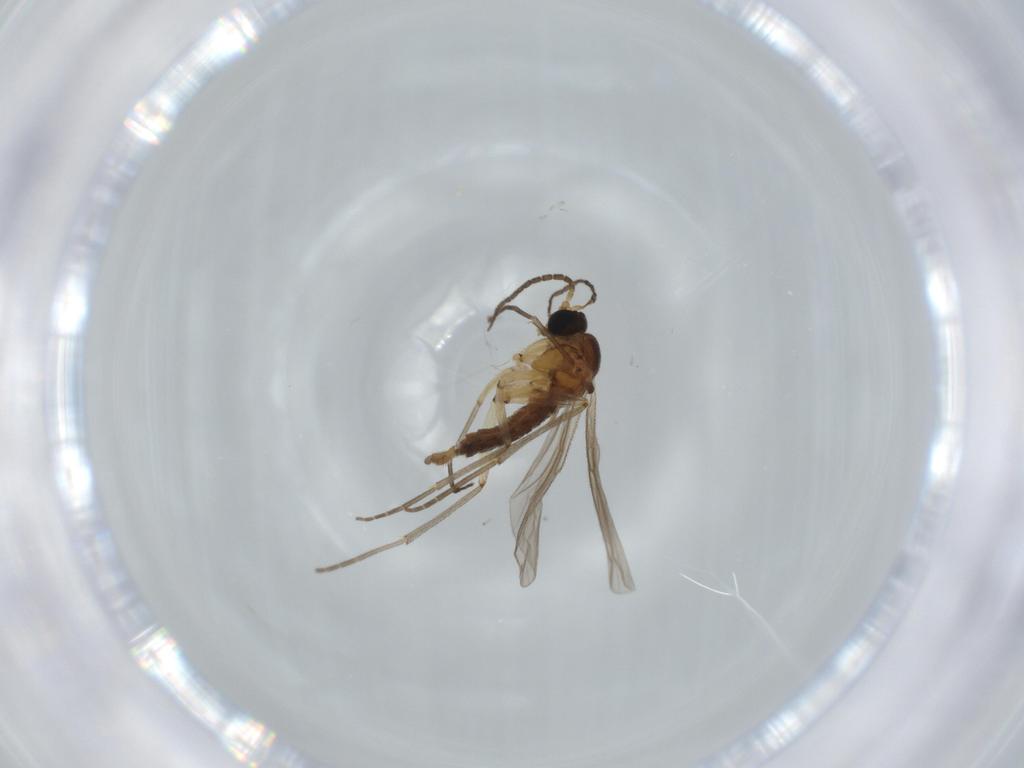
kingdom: Animalia
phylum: Arthropoda
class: Insecta
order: Diptera
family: Sciaridae
